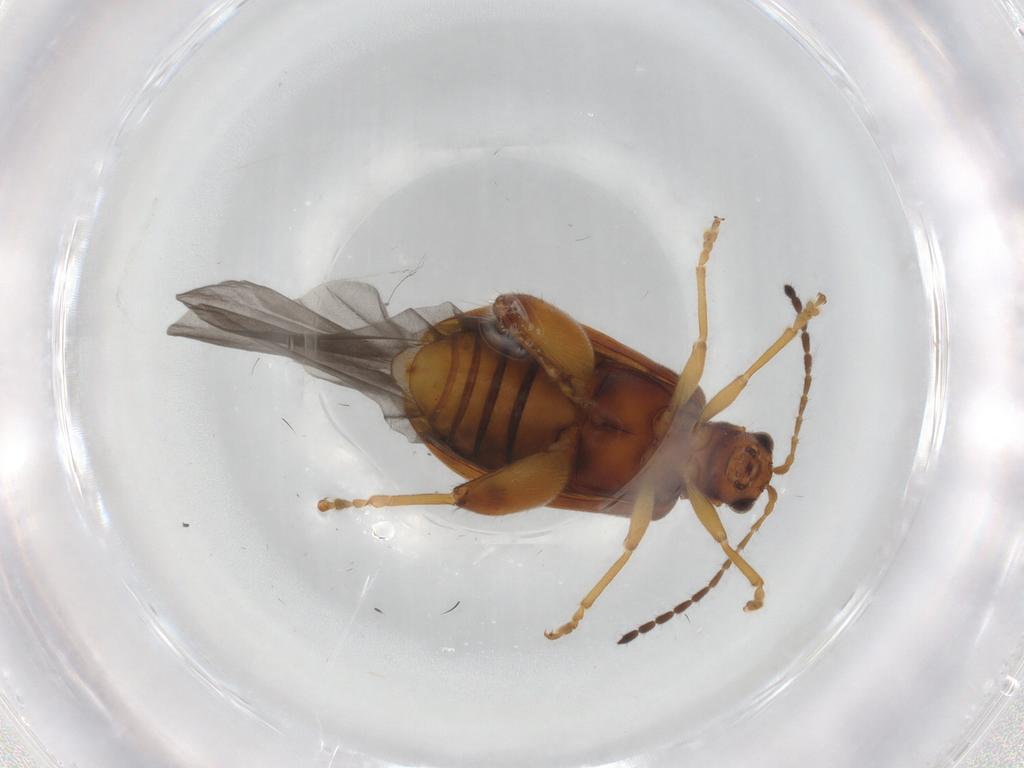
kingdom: Animalia
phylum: Arthropoda
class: Insecta
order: Coleoptera
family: Chrysomelidae
